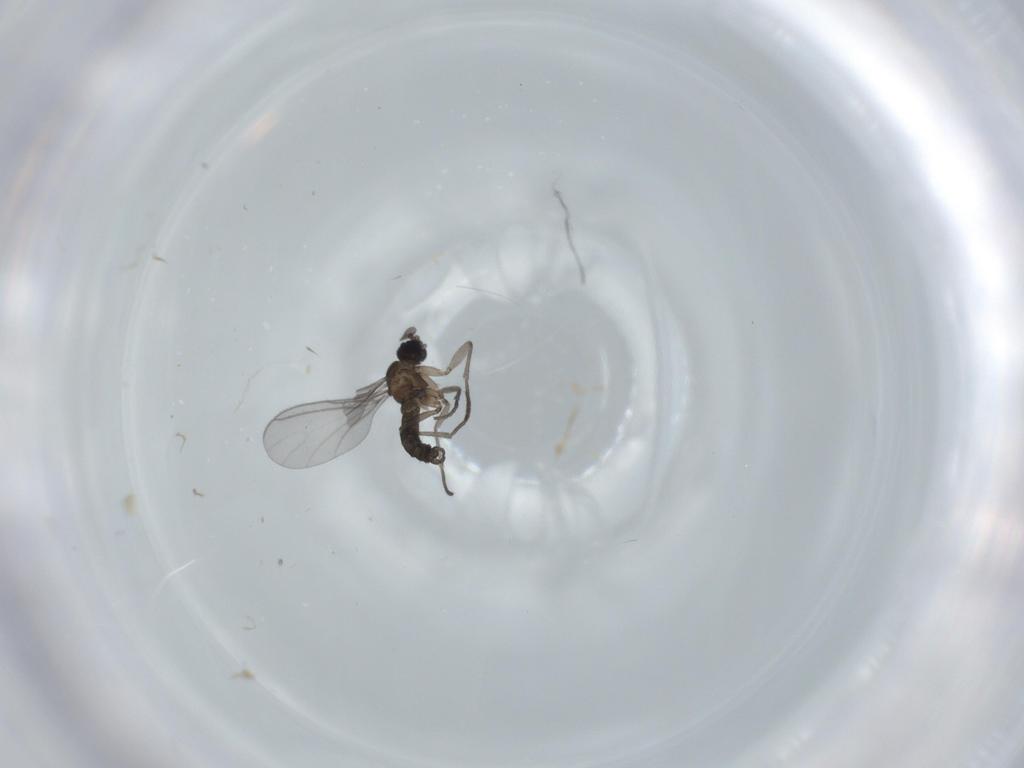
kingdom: Animalia
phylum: Arthropoda
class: Insecta
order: Diptera
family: Cecidomyiidae
